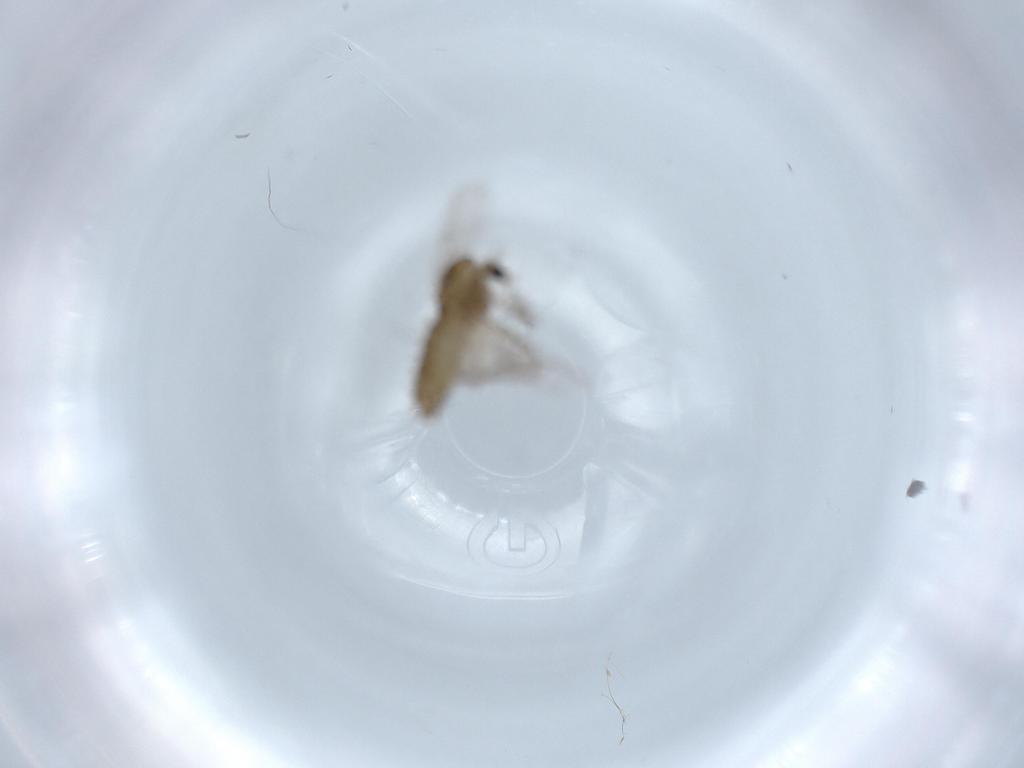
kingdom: Animalia
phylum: Arthropoda
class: Insecta
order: Diptera
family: Chironomidae
